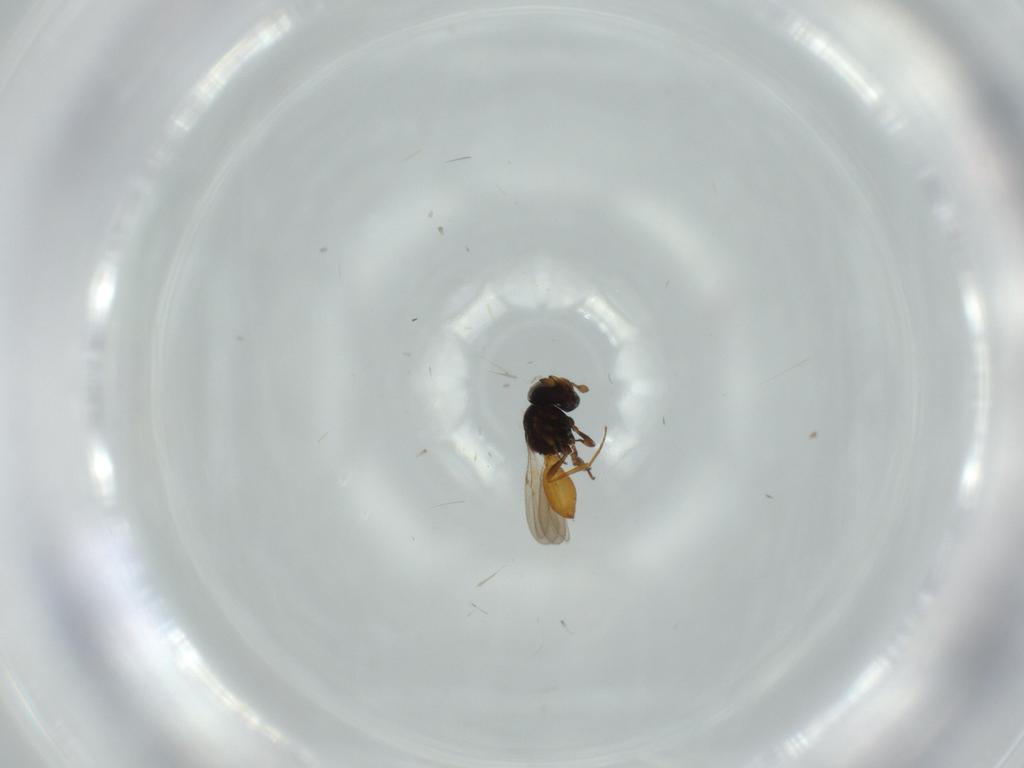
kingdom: Animalia
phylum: Arthropoda
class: Insecta
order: Hymenoptera
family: Scelionidae
